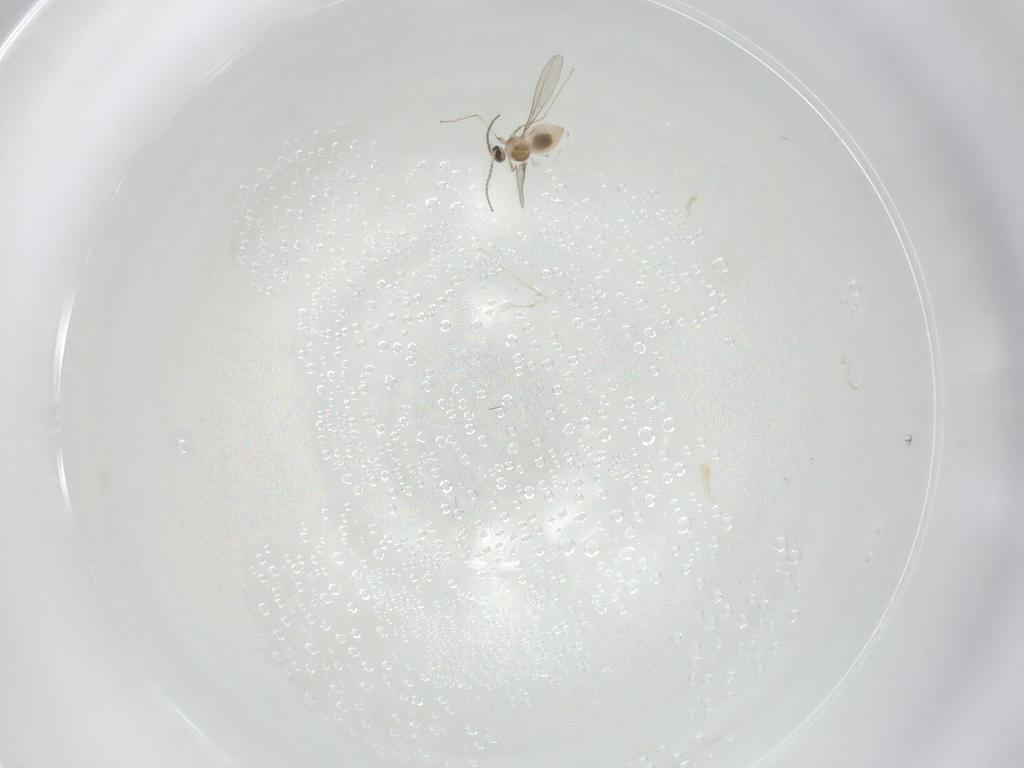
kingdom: Animalia
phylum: Arthropoda
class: Insecta
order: Diptera
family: Cecidomyiidae
